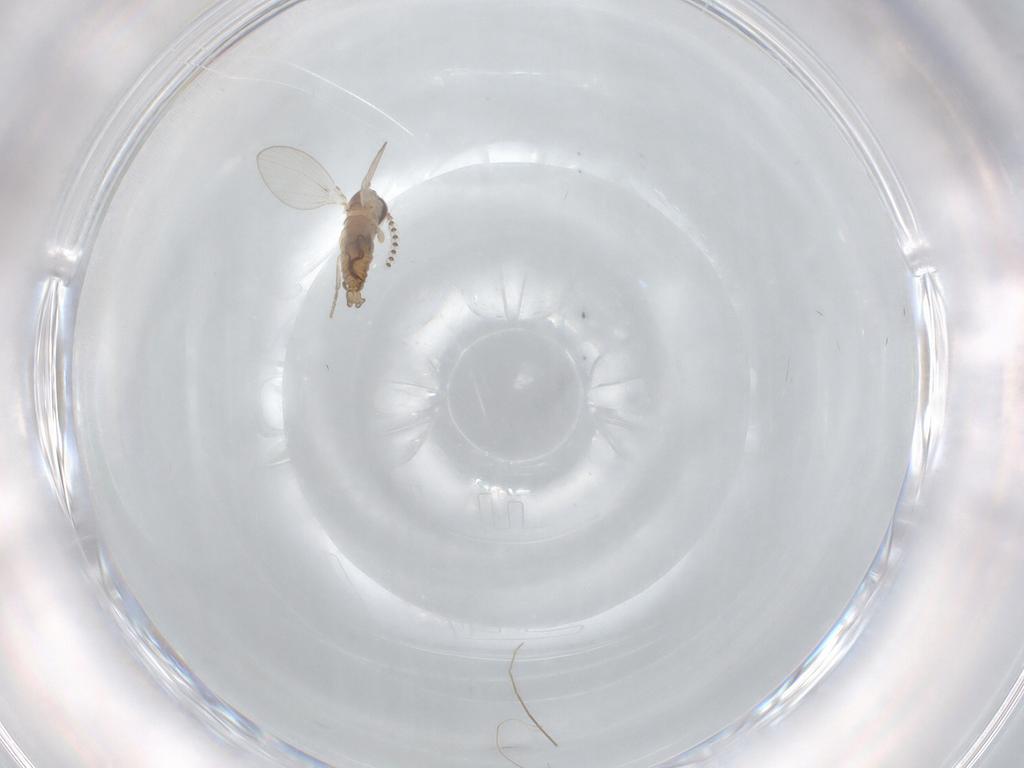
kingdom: Animalia
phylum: Arthropoda
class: Insecta
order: Diptera
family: Psychodidae
